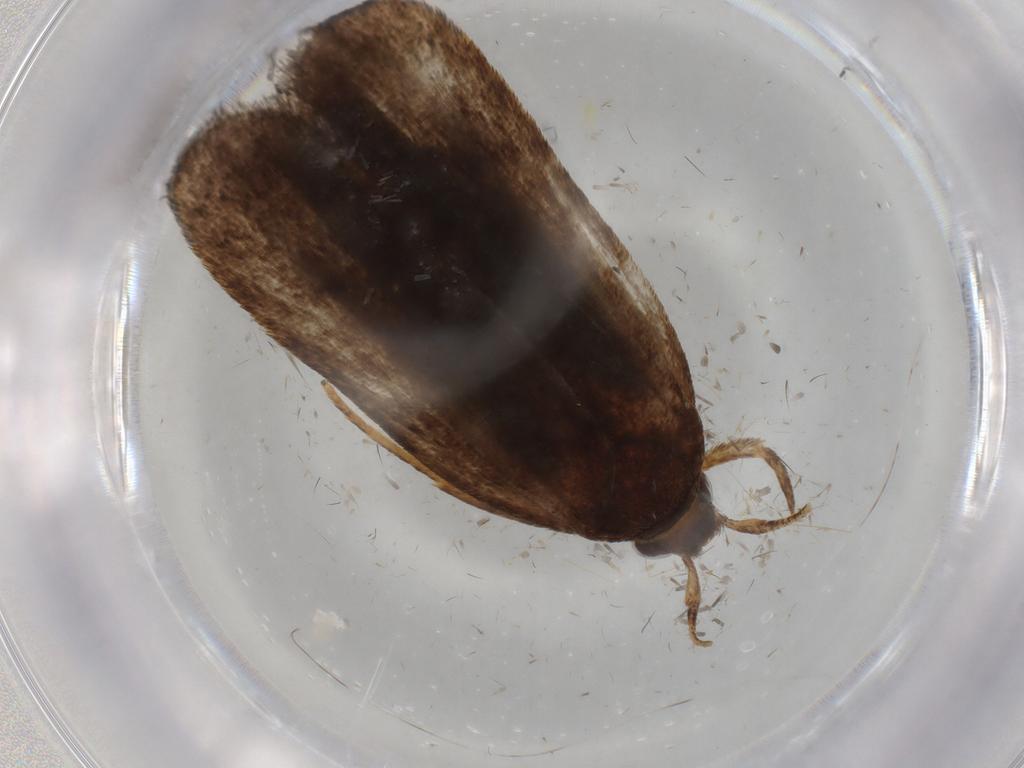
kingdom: Animalia
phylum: Arthropoda
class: Insecta
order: Lepidoptera
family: Autostichidae
